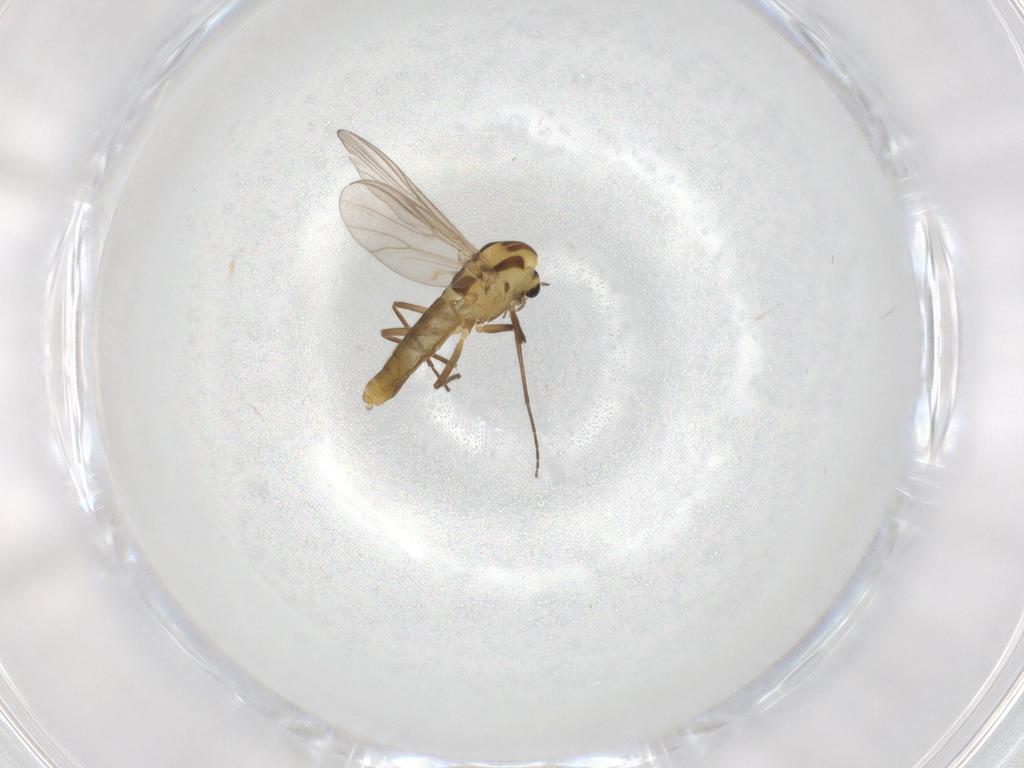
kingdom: Animalia
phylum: Arthropoda
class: Insecta
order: Diptera
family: Chironomidae
